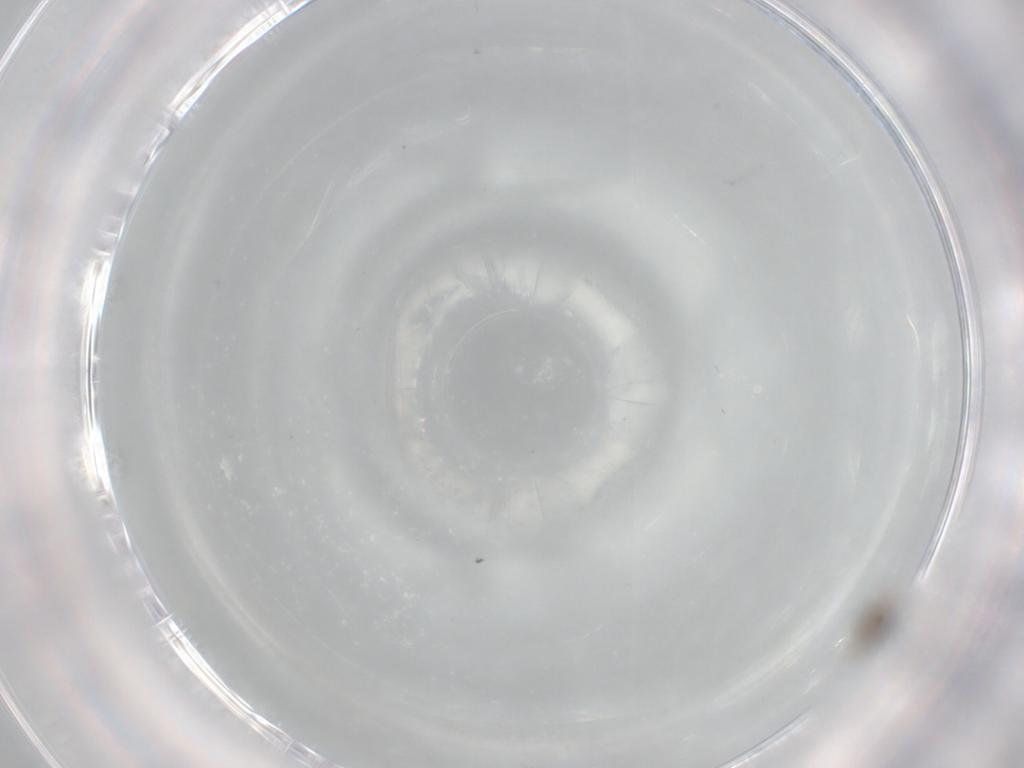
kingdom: Animalia
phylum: Arthropoda
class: Insecta
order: Diptera
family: Cecidomyiidae
